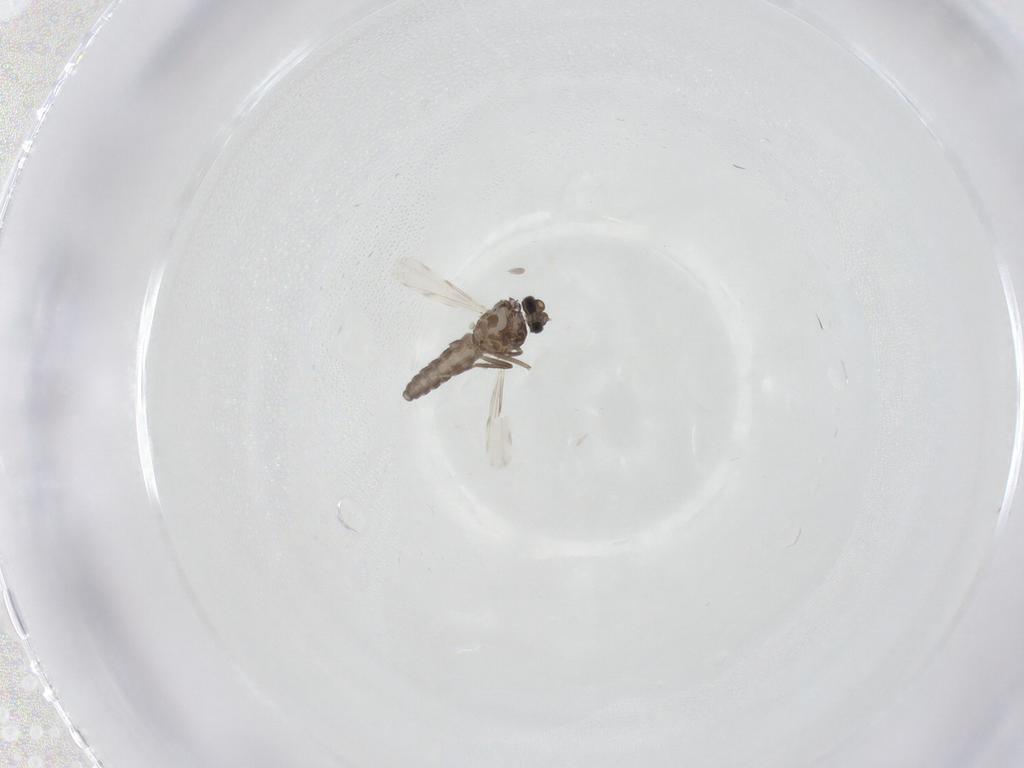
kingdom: Animalia
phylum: Arthropoda
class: Insecta
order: Diptera
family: Ceratopogonidae
